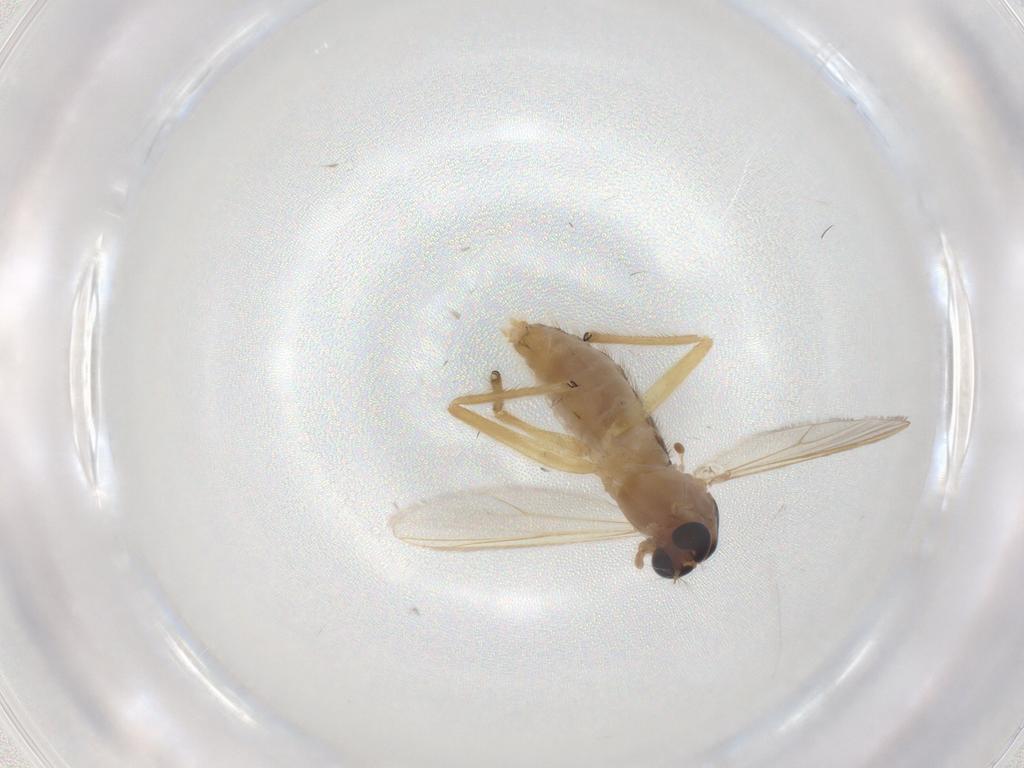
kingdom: Animalia
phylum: Arthropoda
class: Insecta
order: Diptera
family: Chironomidae
